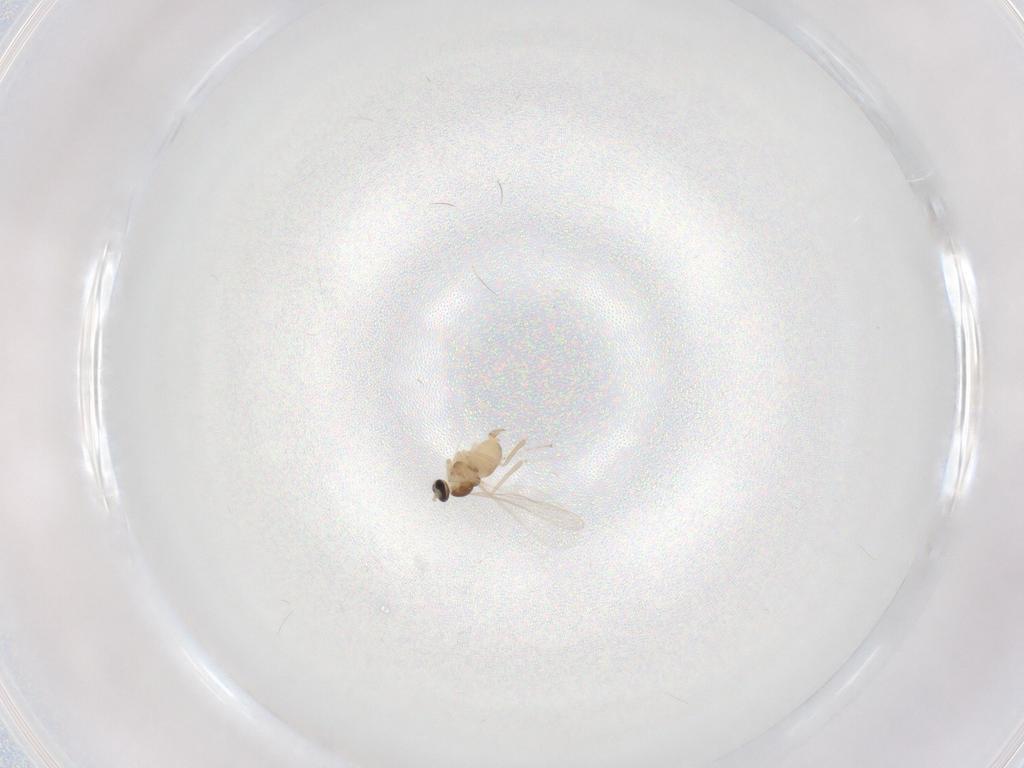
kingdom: Animalia
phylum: Arthropoda
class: Insecta
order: Diptera
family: Cecidomyiidae
